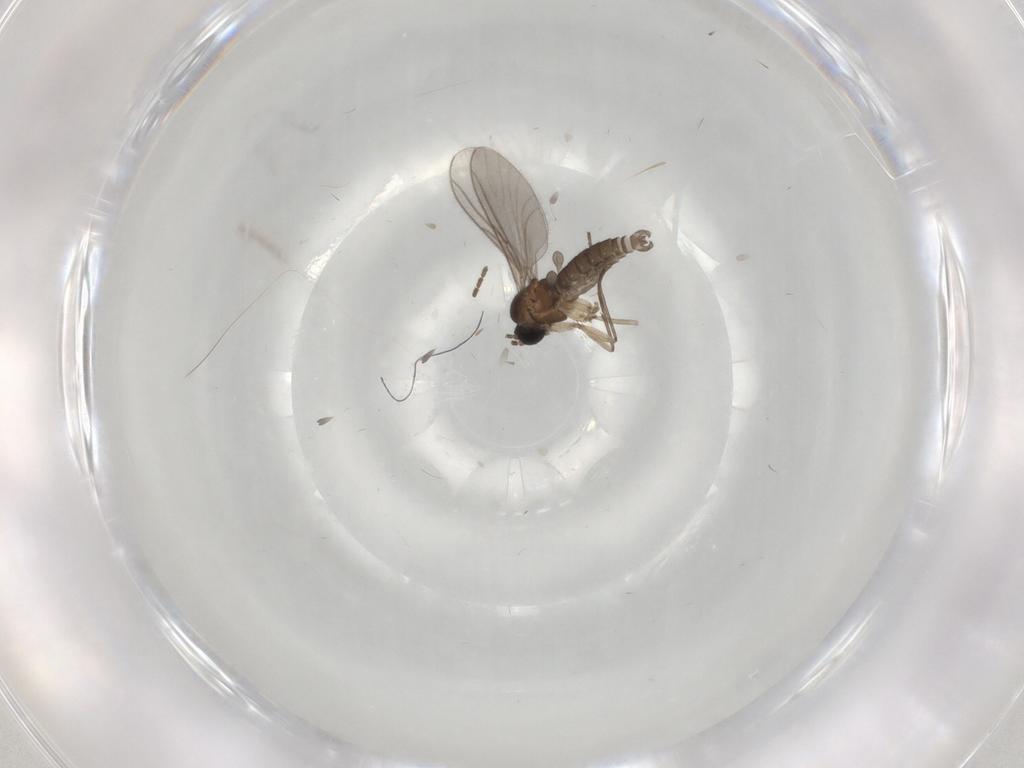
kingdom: Animalia
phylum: Arthropoda
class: Insecta
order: Diptera
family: Sciaridae
